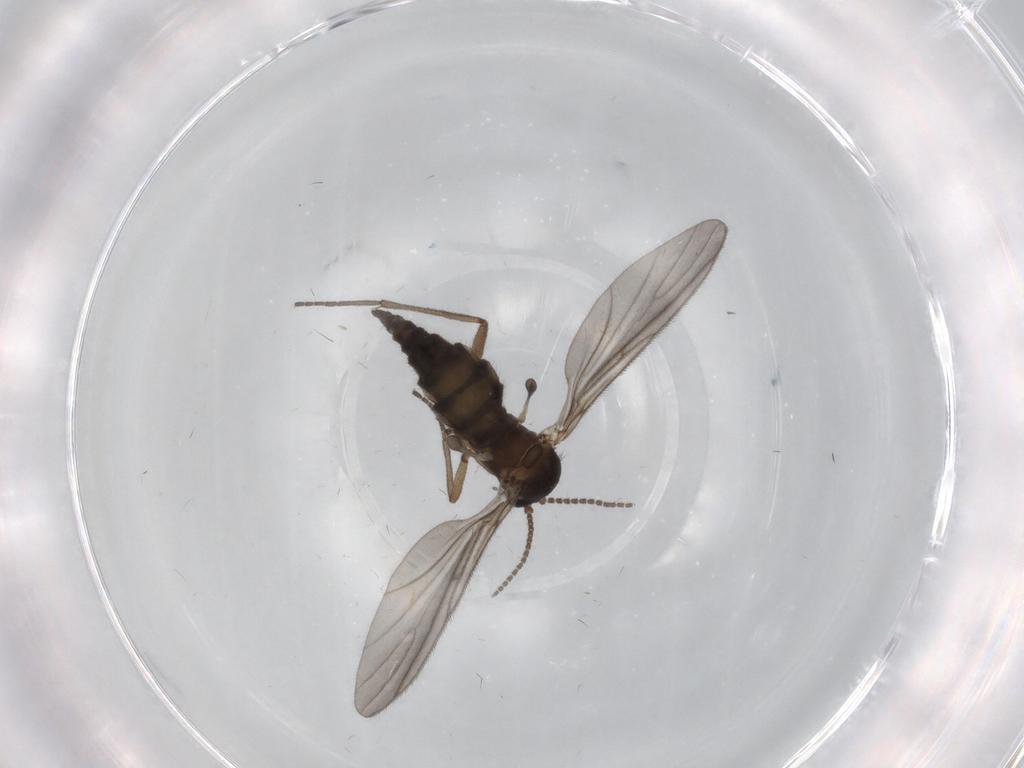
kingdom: Animalia
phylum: Arthropoda
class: Insecta
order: Diptera
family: Sciaridae
